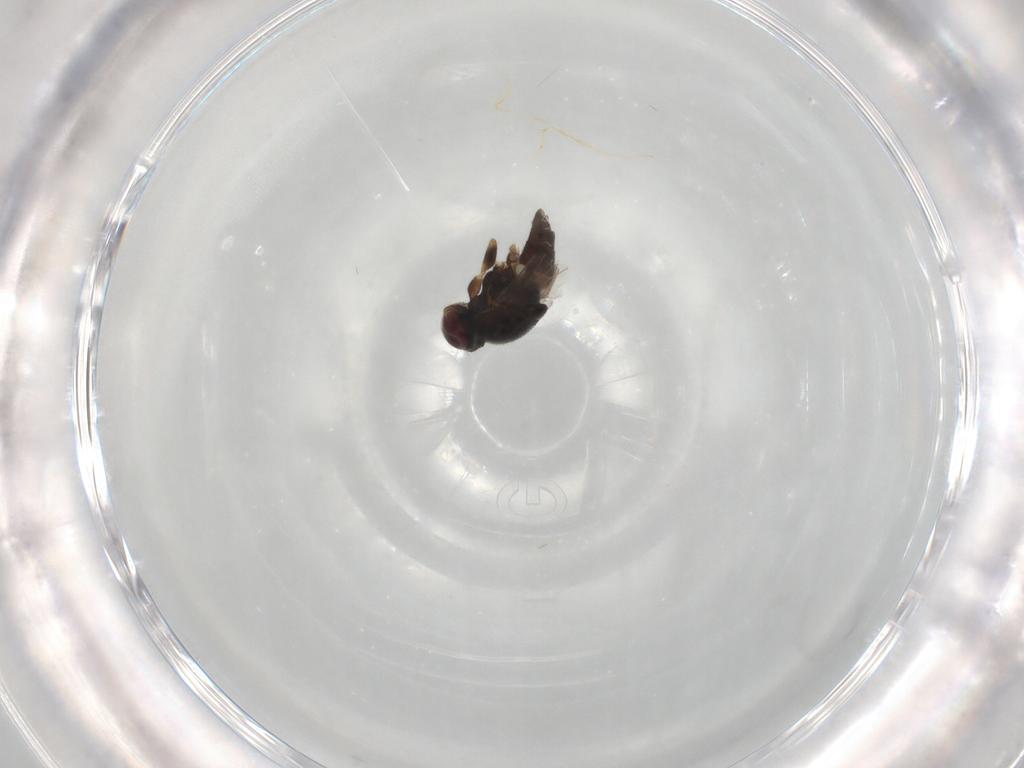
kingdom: Animalia
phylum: Arthropoda
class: Insecta
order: Diptera
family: Chloropidae
